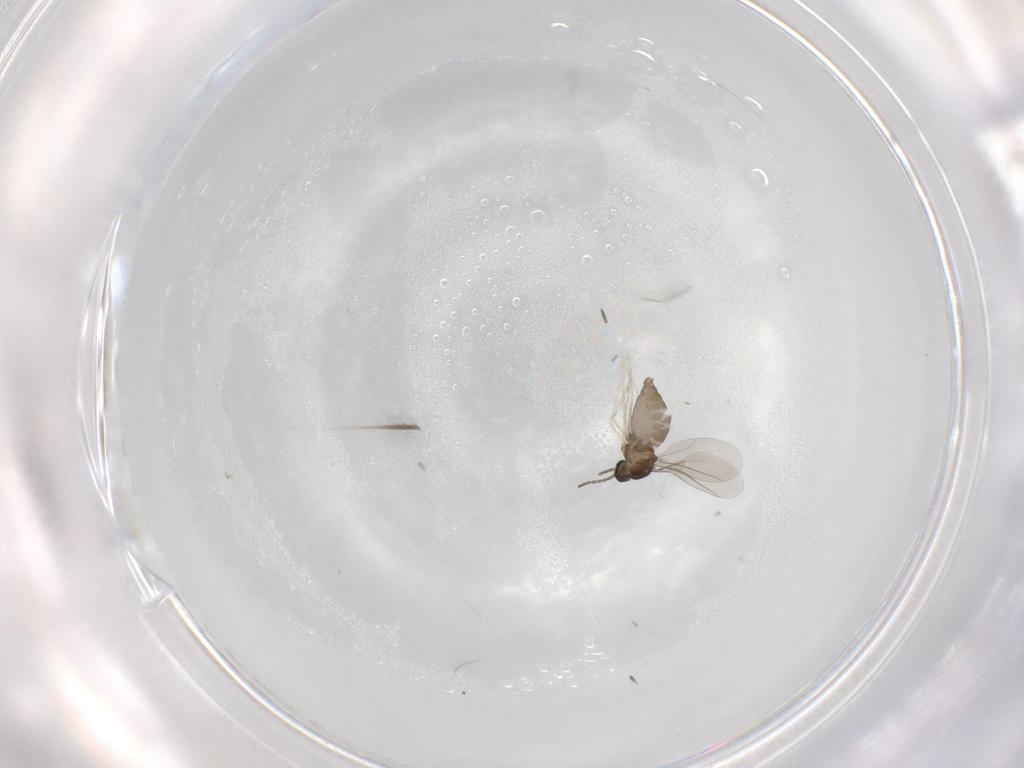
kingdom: Animalia
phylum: Arthropoda
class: Insecta
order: Diptera
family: Cecidomyiidae
